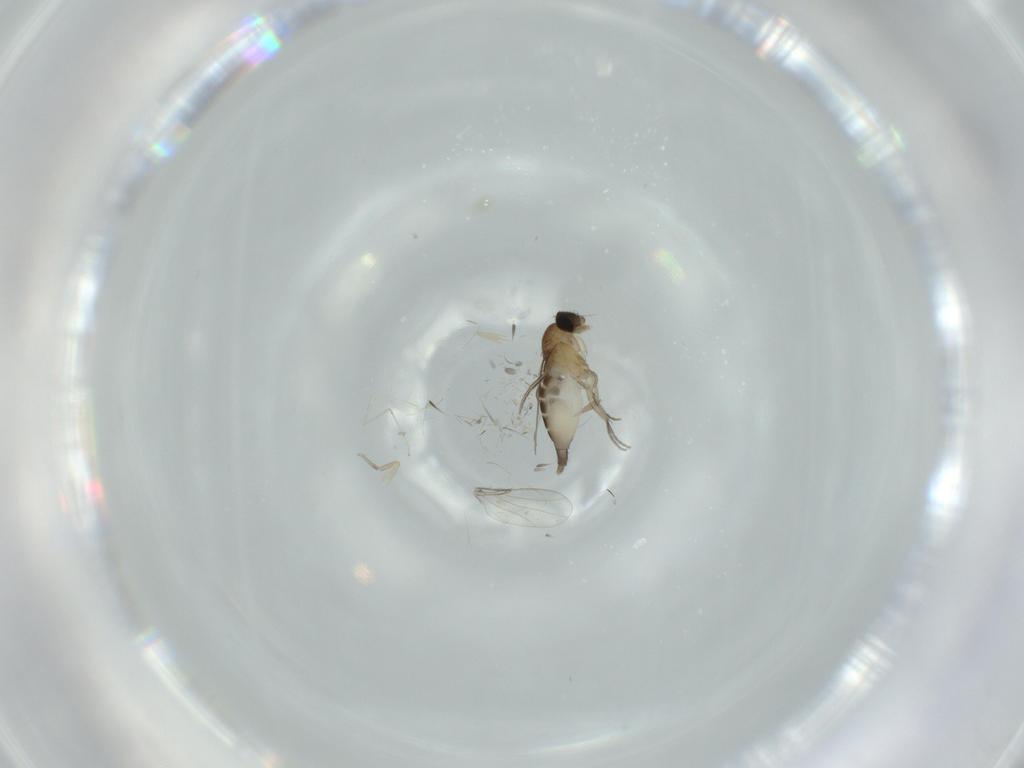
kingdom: Animalia
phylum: Arthropoda
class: Insecta
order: Diptera
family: Phoridae
